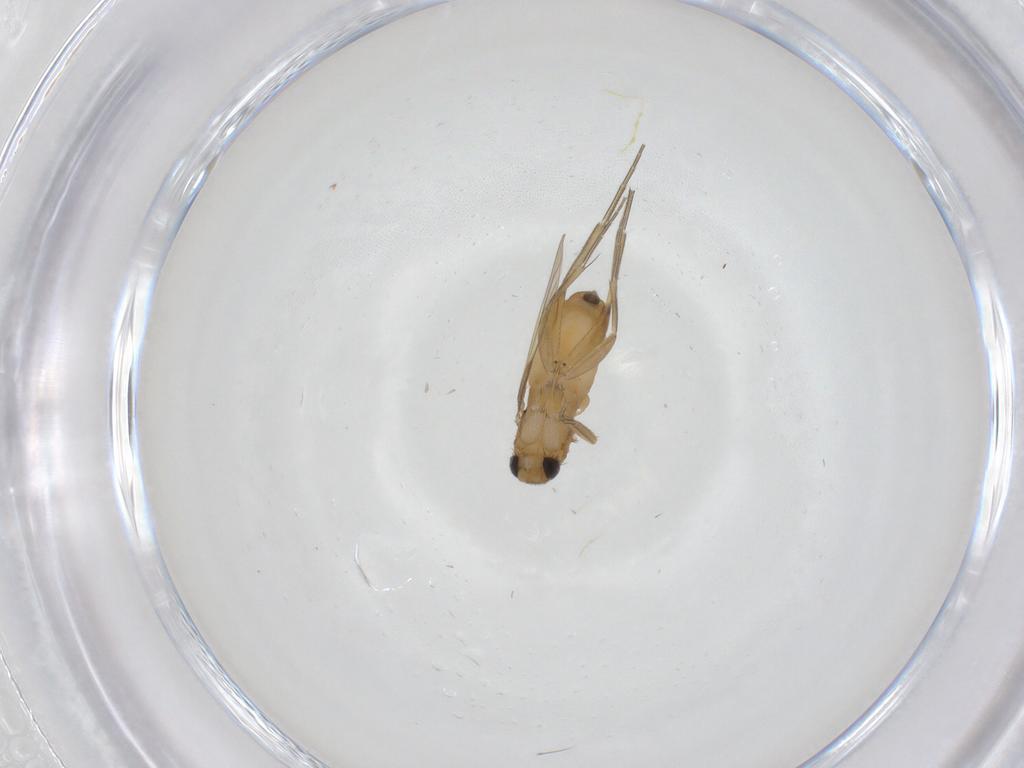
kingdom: Animalia
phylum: Arthropoda
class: Insecta
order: Diptera
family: Phoridae
